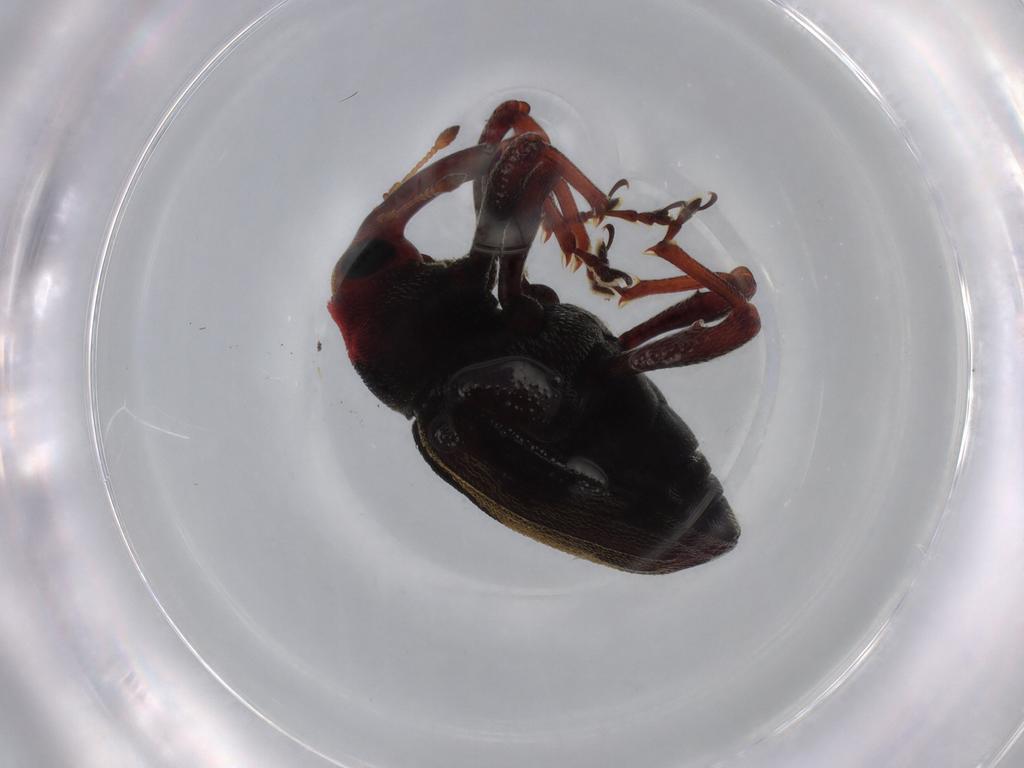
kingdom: Animalia
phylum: Arthropoda
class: Insecta
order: Coleoptera
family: Curculionidae
